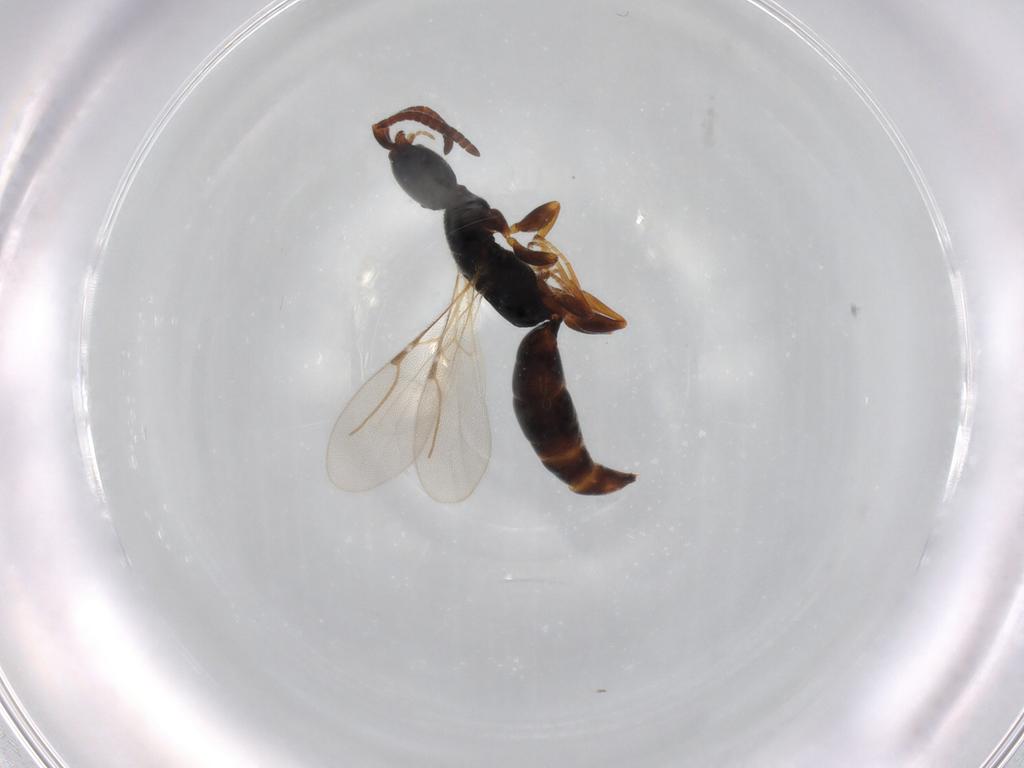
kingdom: Animalia
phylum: Arthropoda
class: Insecta
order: Hymenoptera
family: Bethylidae
